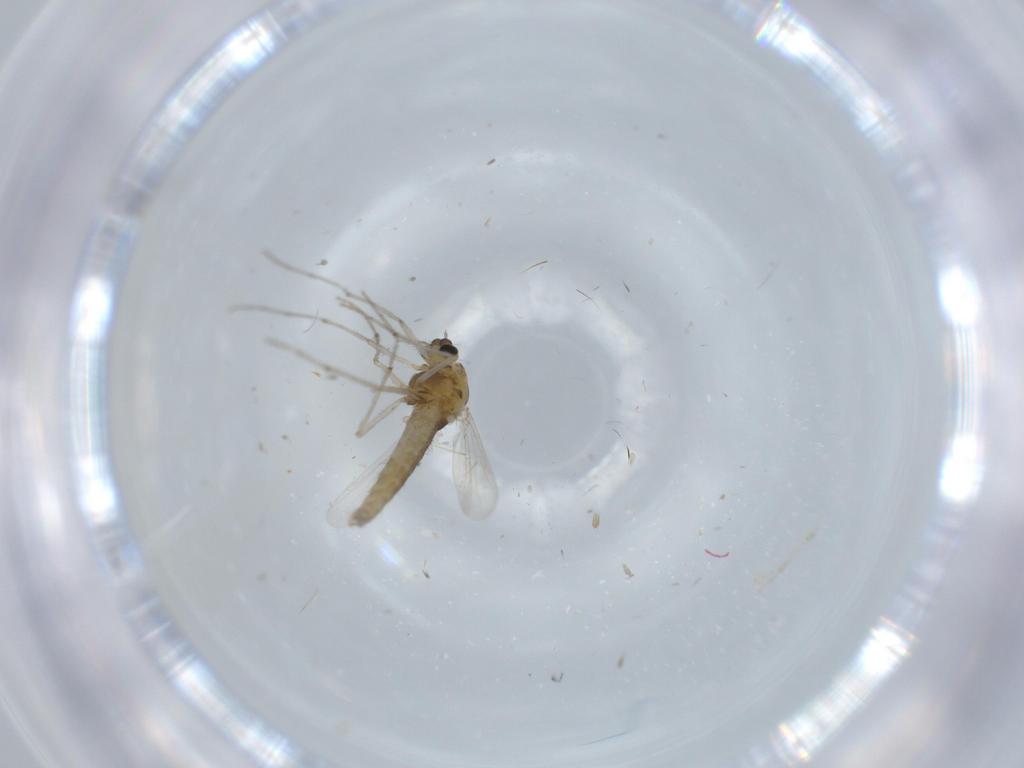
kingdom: Animalia
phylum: Arthropoda
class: Insecta
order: Diptera
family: Chironomidae
